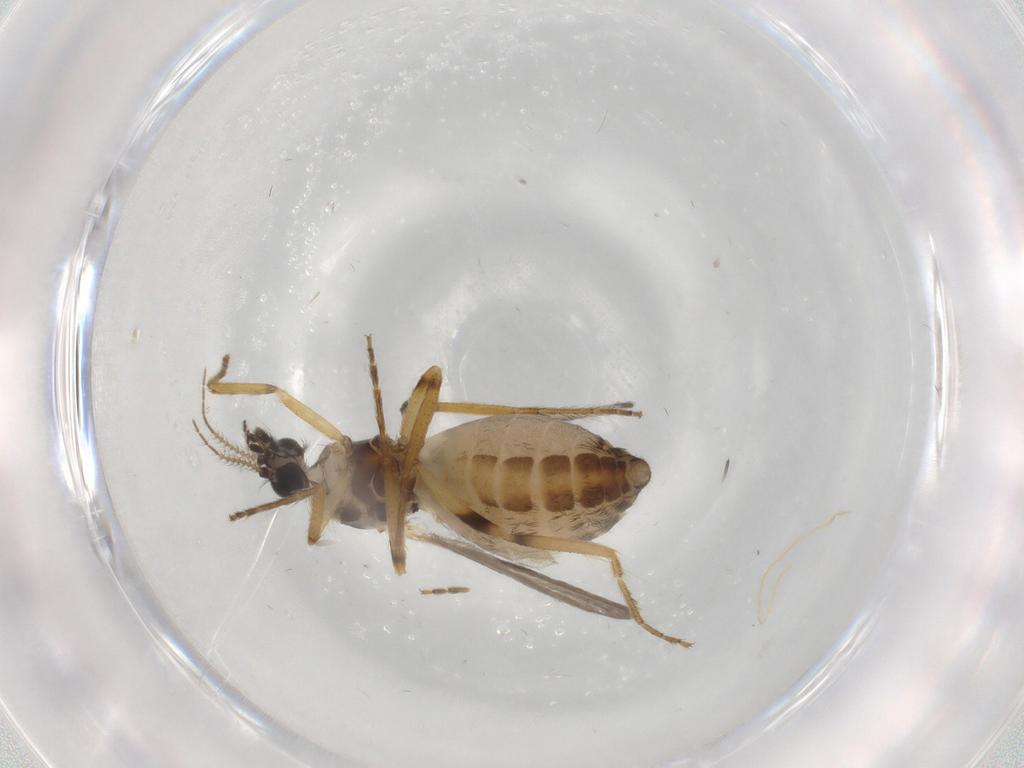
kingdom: Animalia
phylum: Arthropoda
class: Insecta
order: Diptera
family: Ceratopogonidae
